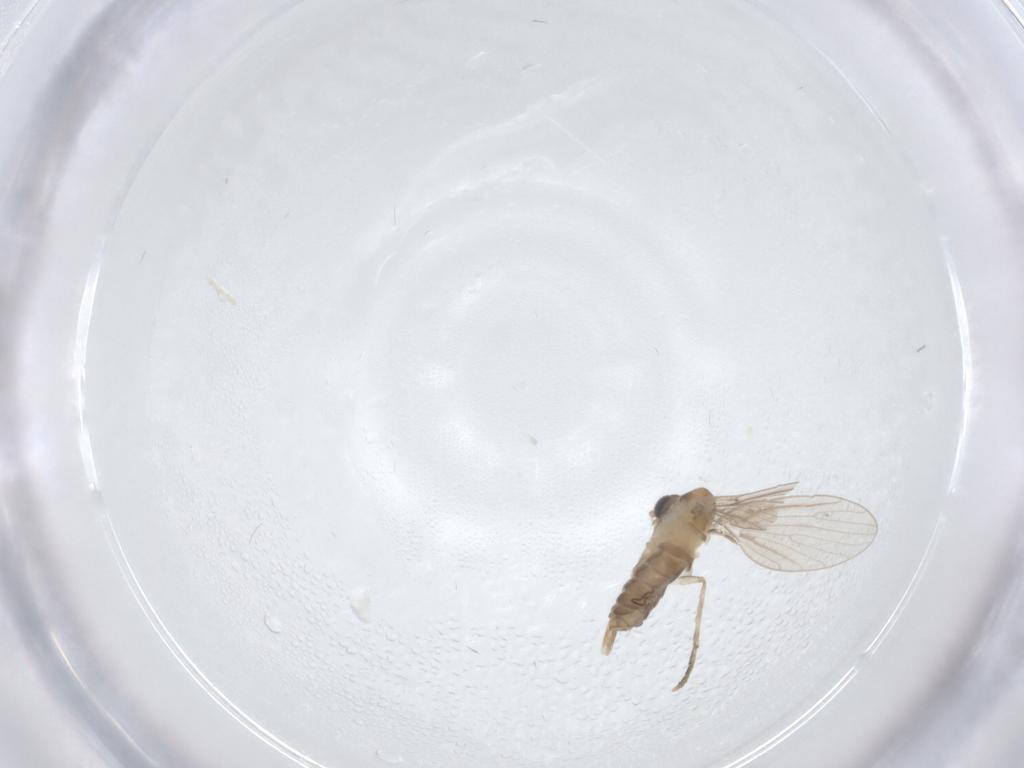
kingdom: Animalia
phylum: Arthropoda
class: Insecta
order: Diptera
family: Psychodidae
